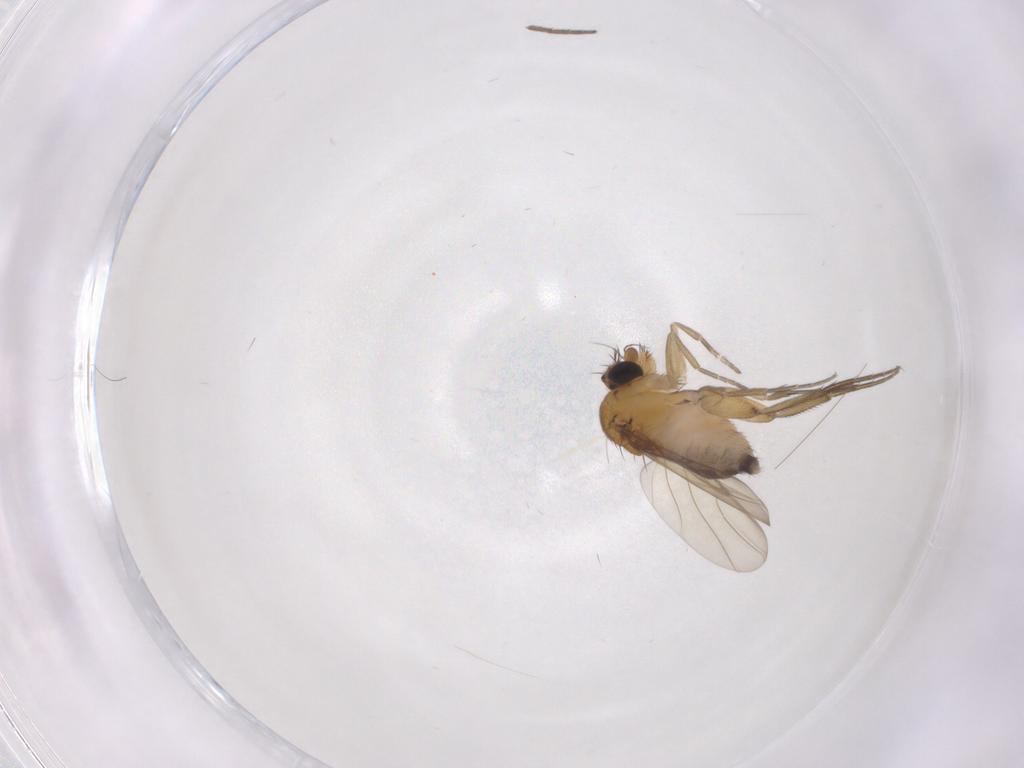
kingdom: Animalia
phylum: Arthropoda
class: Insecta
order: Diptera
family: Phoridae
